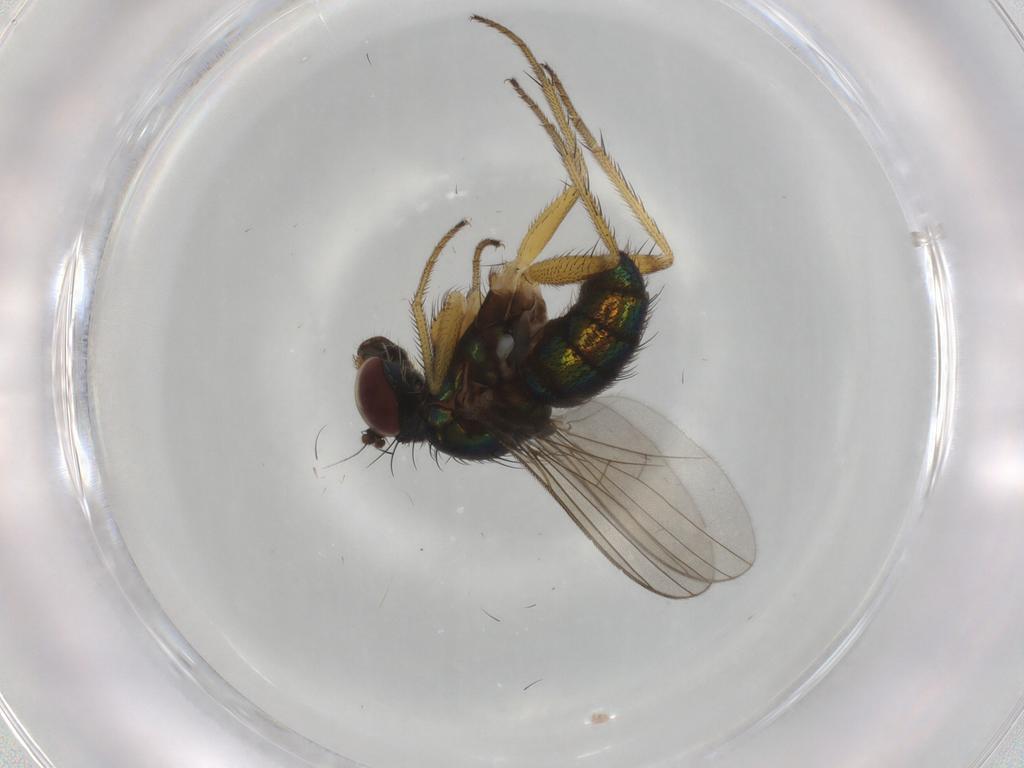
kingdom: Animalia
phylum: Arthropoda
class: Insecta
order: Diptera
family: Dolichopodidae
